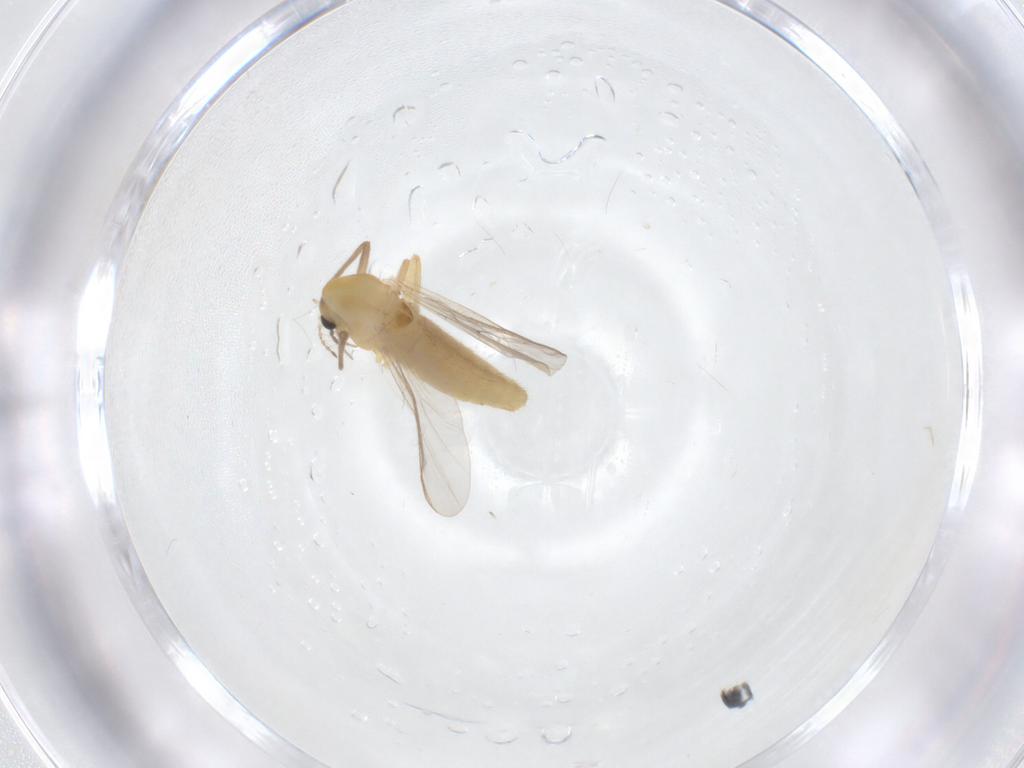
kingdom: Animalia
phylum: Arthropoda
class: Insecta
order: Diptera
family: Chironomidae
